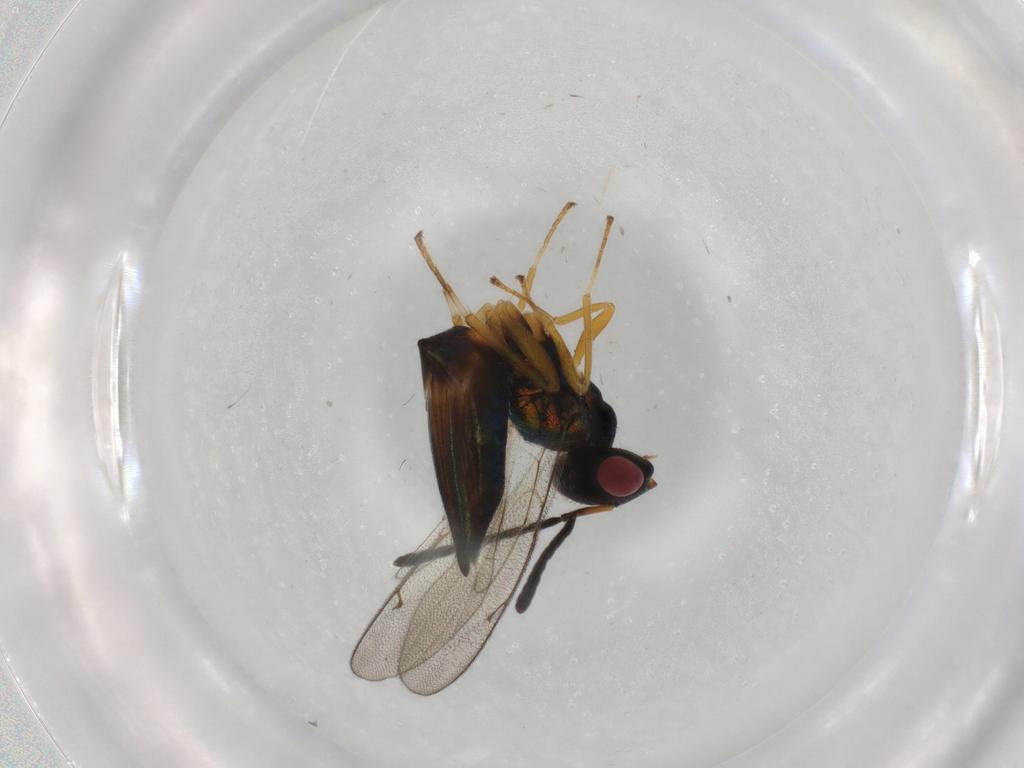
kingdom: Animalia
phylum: Arthropoda
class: Insecta
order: Hymenoptera
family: Pteromalidae
